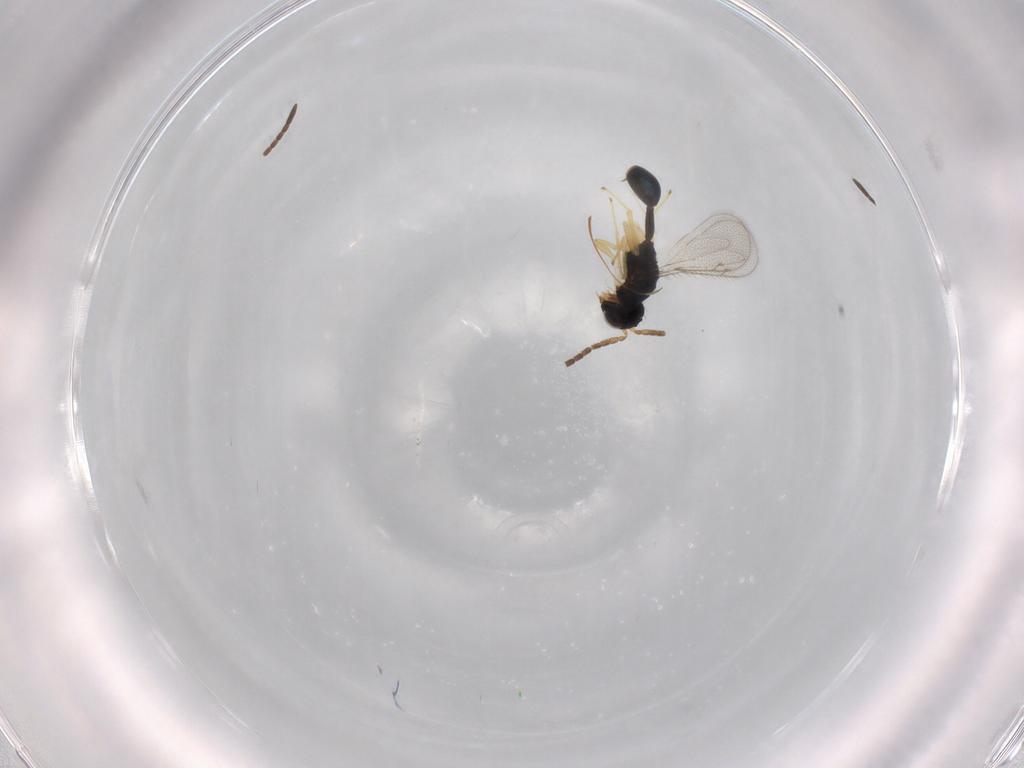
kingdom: Animalia
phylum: Arthropoda
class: Insecta
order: Hymenoptera
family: Pteromalidae
